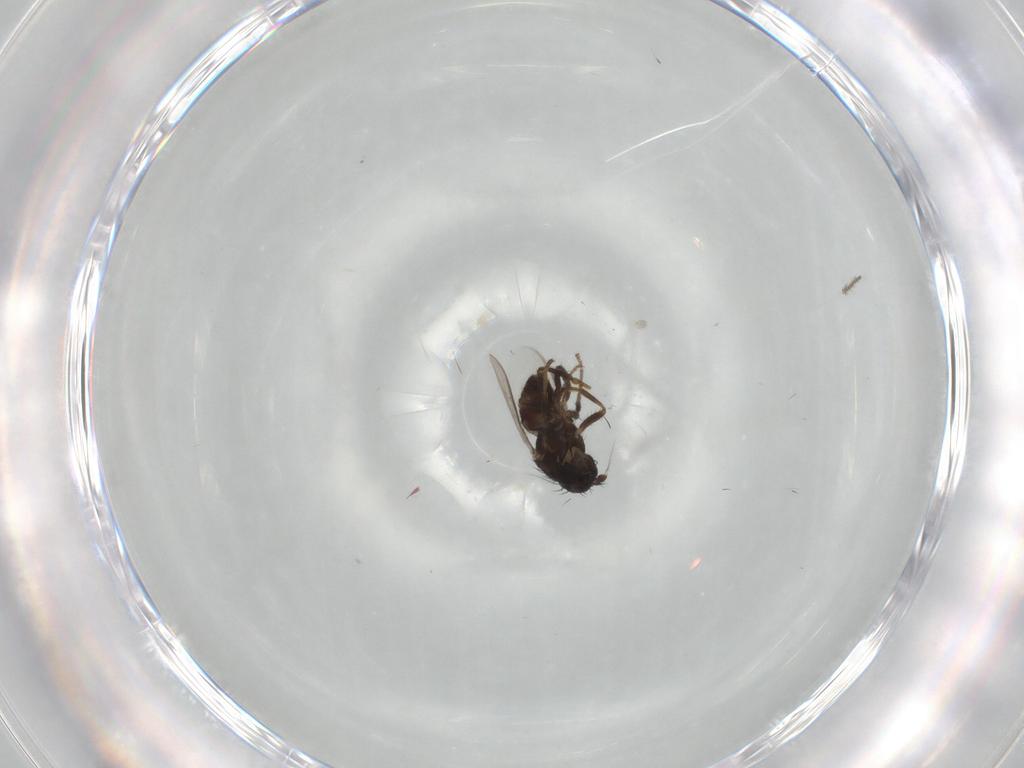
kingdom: Animalia
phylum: Arthropoda
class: Insecta
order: Diptera
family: Sphaeroceridae
